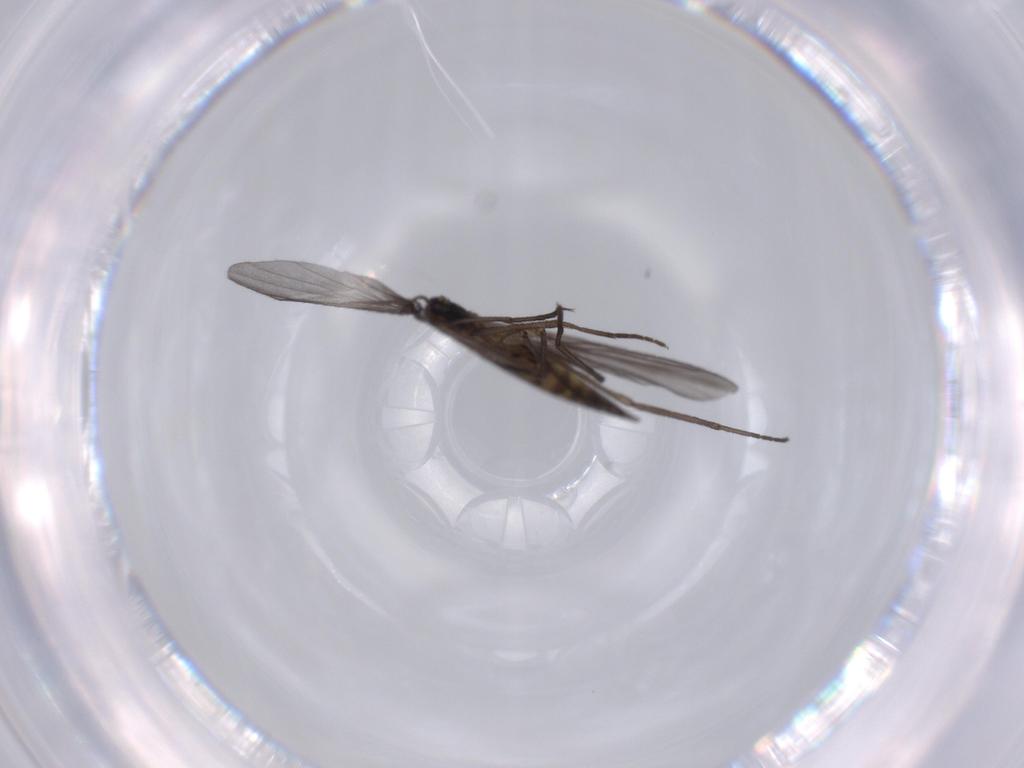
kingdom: Animalia
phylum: Arthropoda
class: Insecta
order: Diptera
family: Sciaridae
